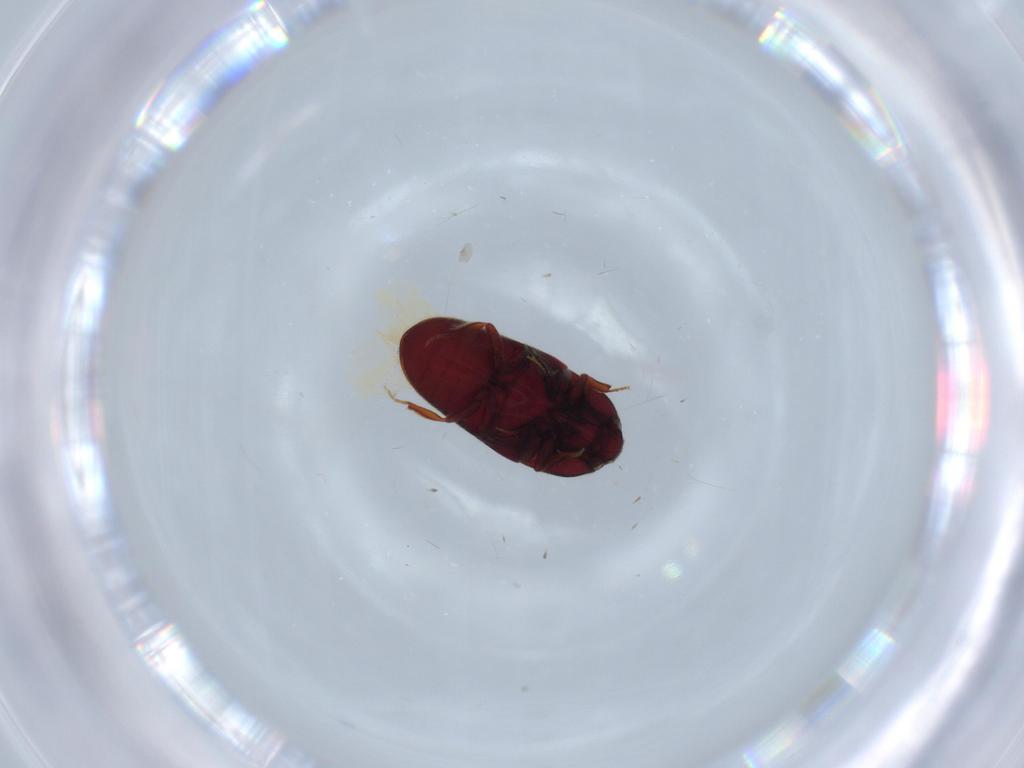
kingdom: Animalia
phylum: Arthropoda
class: Insecta
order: Coleoptera
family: Throscidae
